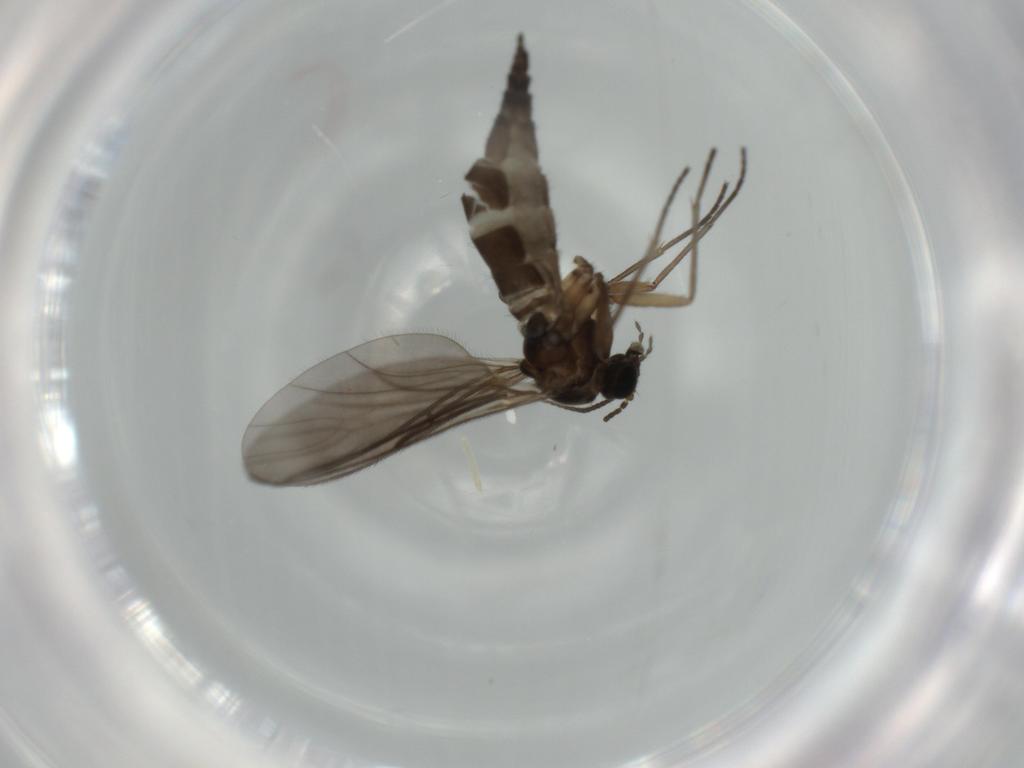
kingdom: Animalia
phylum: Arthropoda
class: Insecta
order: Diptera
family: Sciaridae
